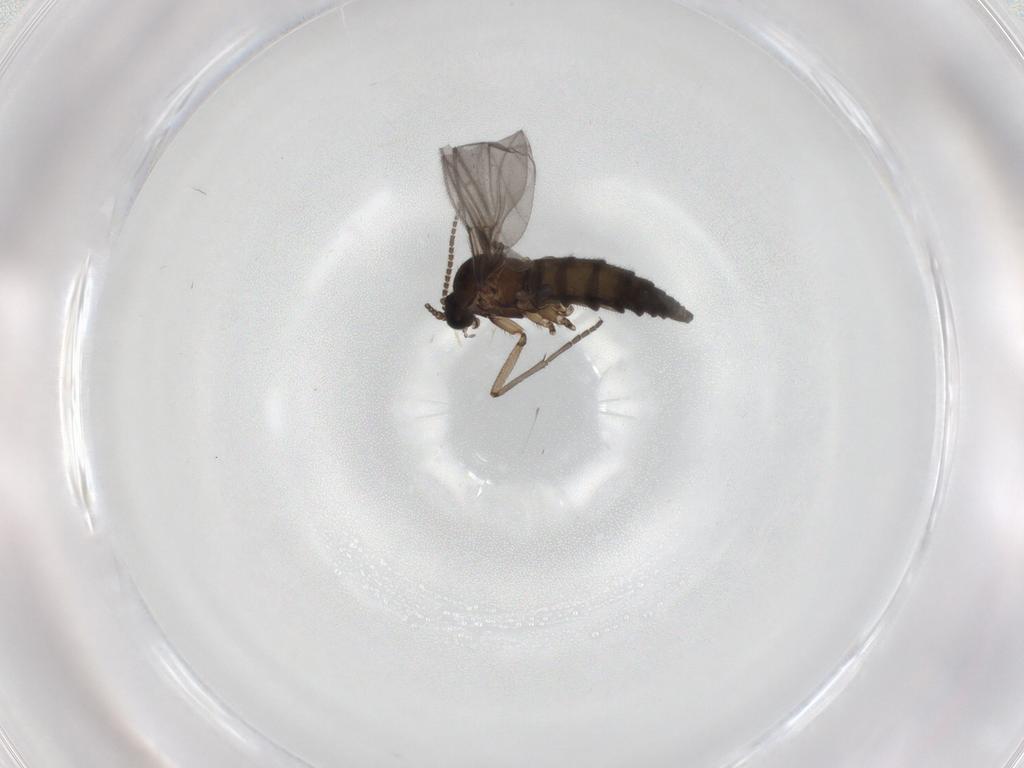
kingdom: Animalia
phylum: Arthropoda
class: Insecta
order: Diptera
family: Sciaridae
